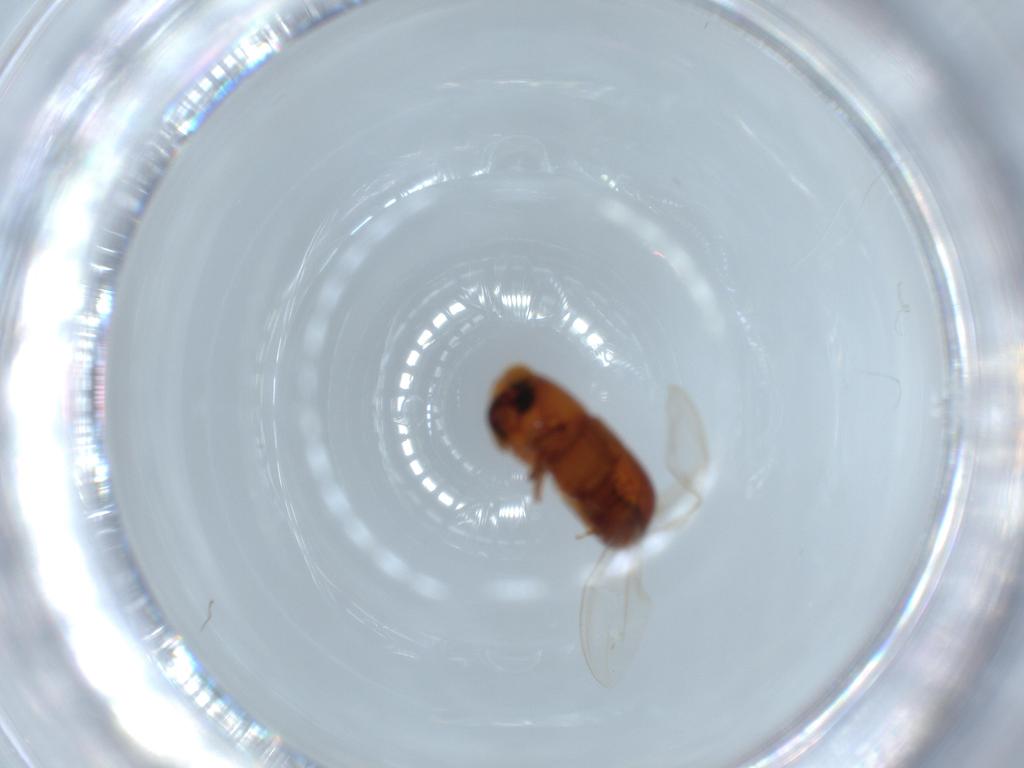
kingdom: Animalia
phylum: Arthropoda
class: Insecta
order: Coleoptera
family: Curculionidae
